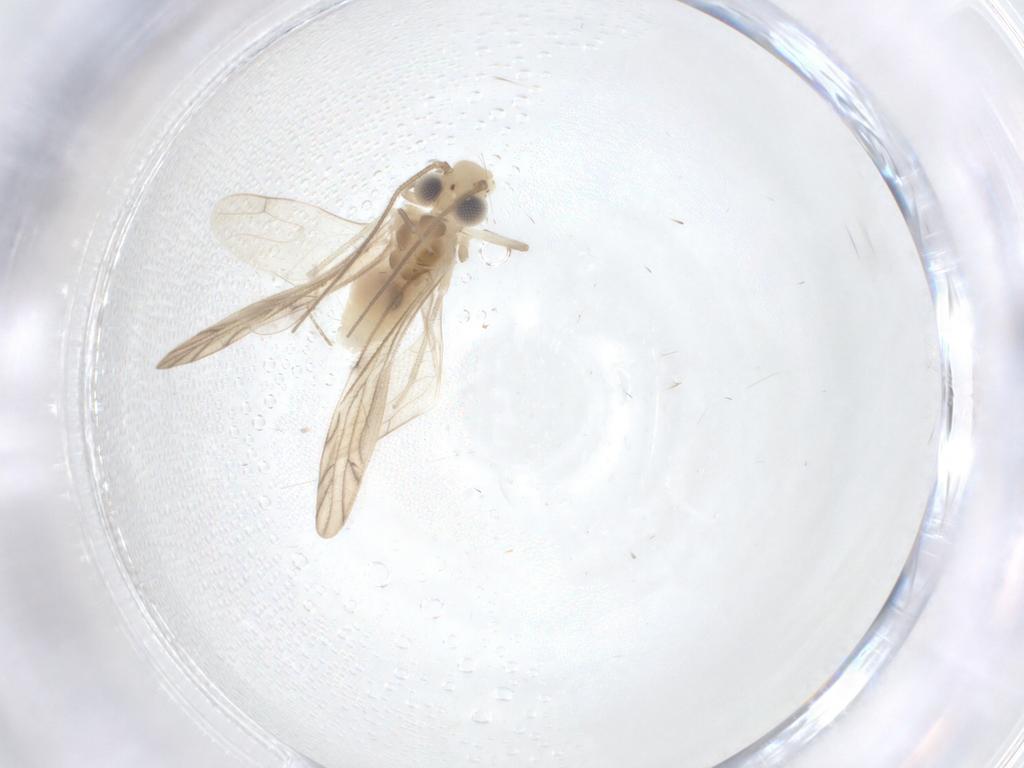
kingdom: Animalia
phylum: Arthropoda
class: Insecta
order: Psocodea
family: Caeciliusidae
